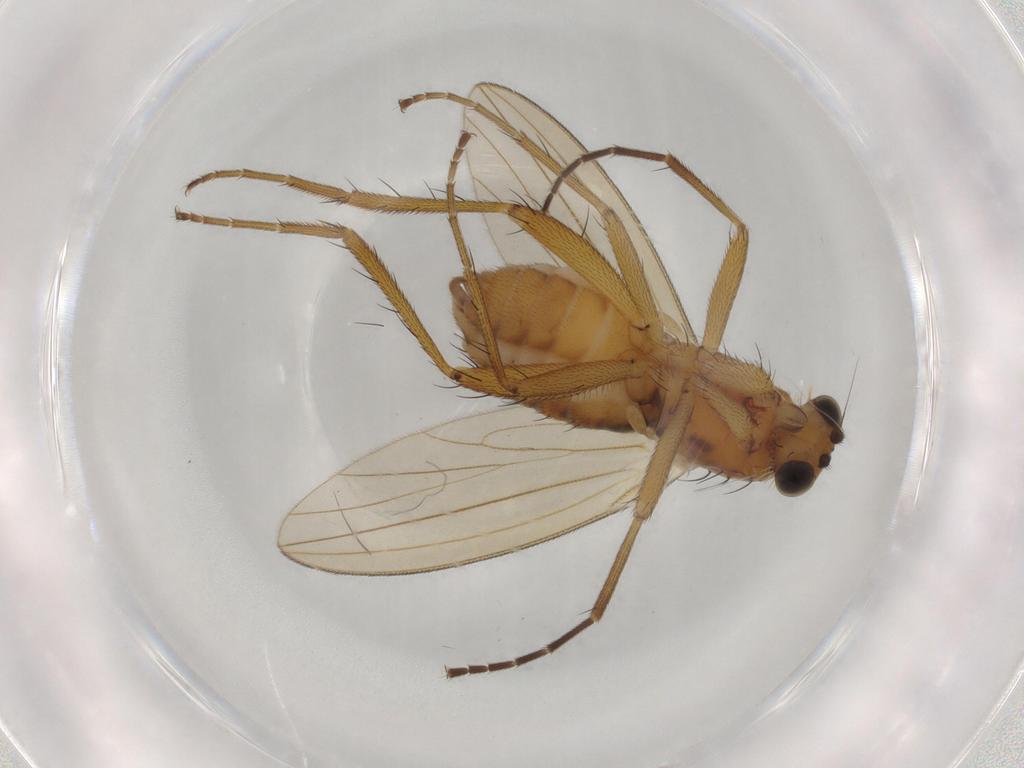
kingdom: Animalia
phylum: Arthropoda
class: Insecta
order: Diptera
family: Lonchopteridae
